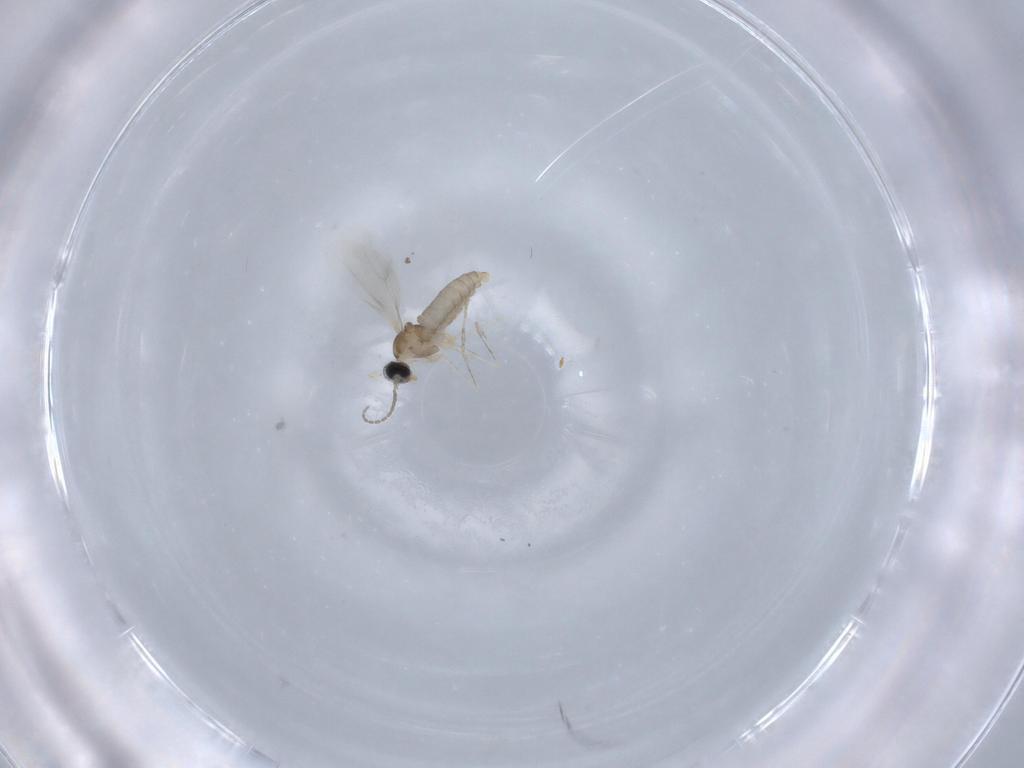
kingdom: Animalia
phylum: Arthropoda
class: Insecta
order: Diptera
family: Cecidomyiidae
